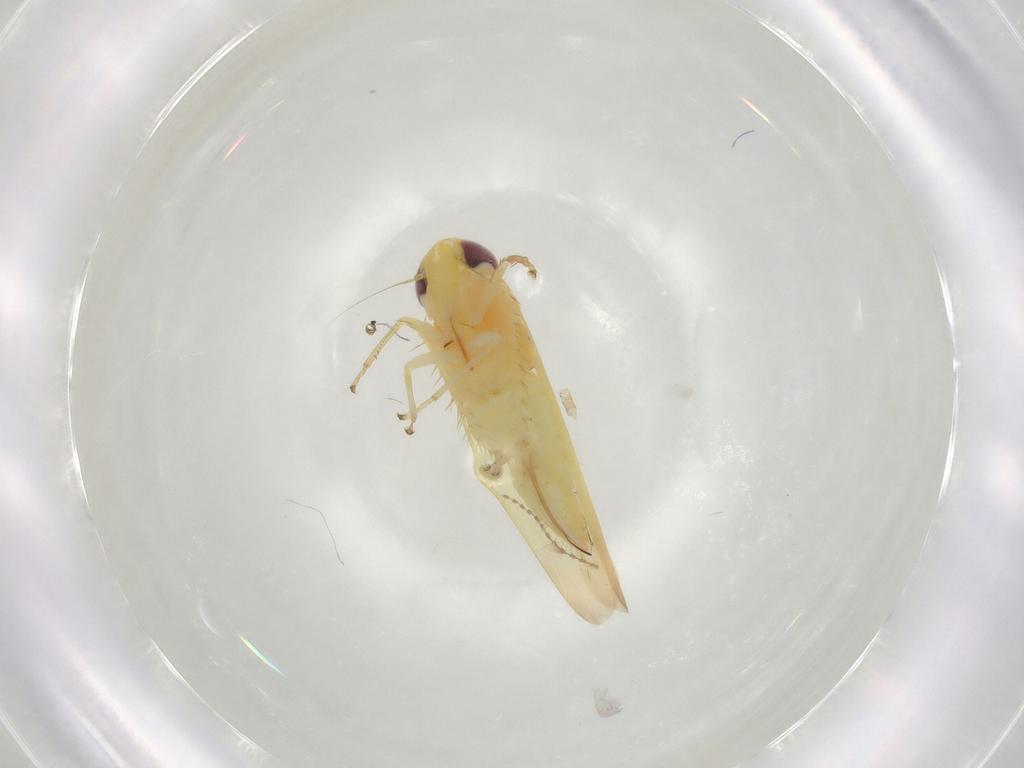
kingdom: Animalia
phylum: Arthropoda
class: Insecta
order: Hemiptera
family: Cicadellidae
